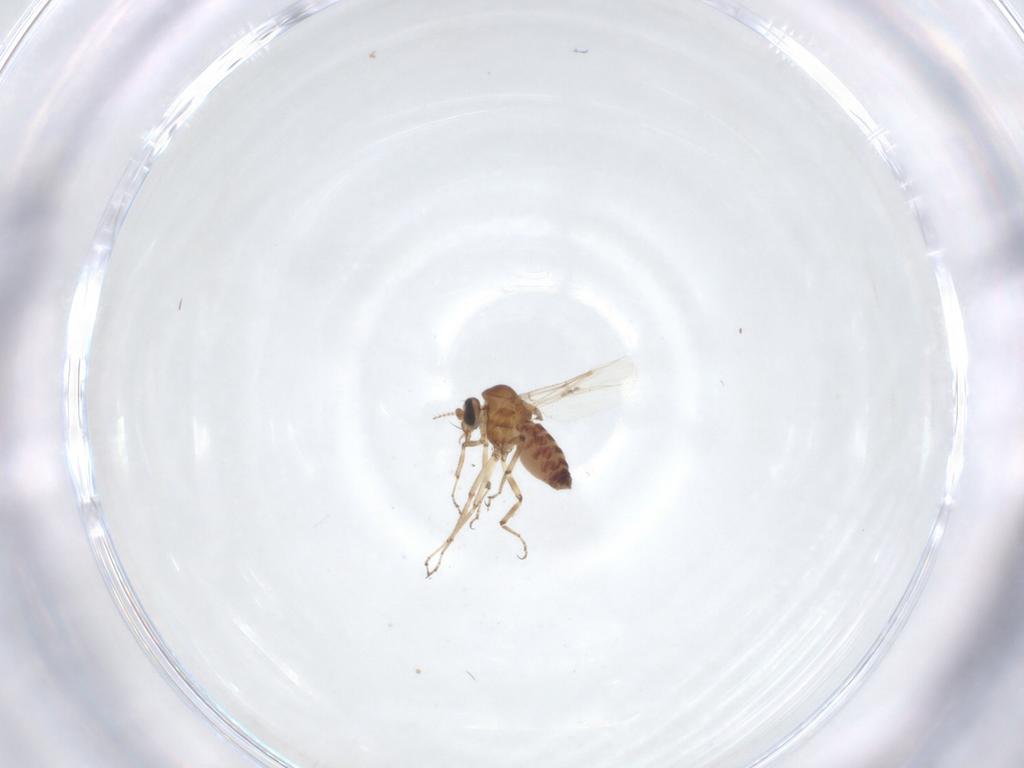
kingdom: Animalia
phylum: Arthropoda
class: Insecta
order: Diptera
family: Ceratopogonidae
